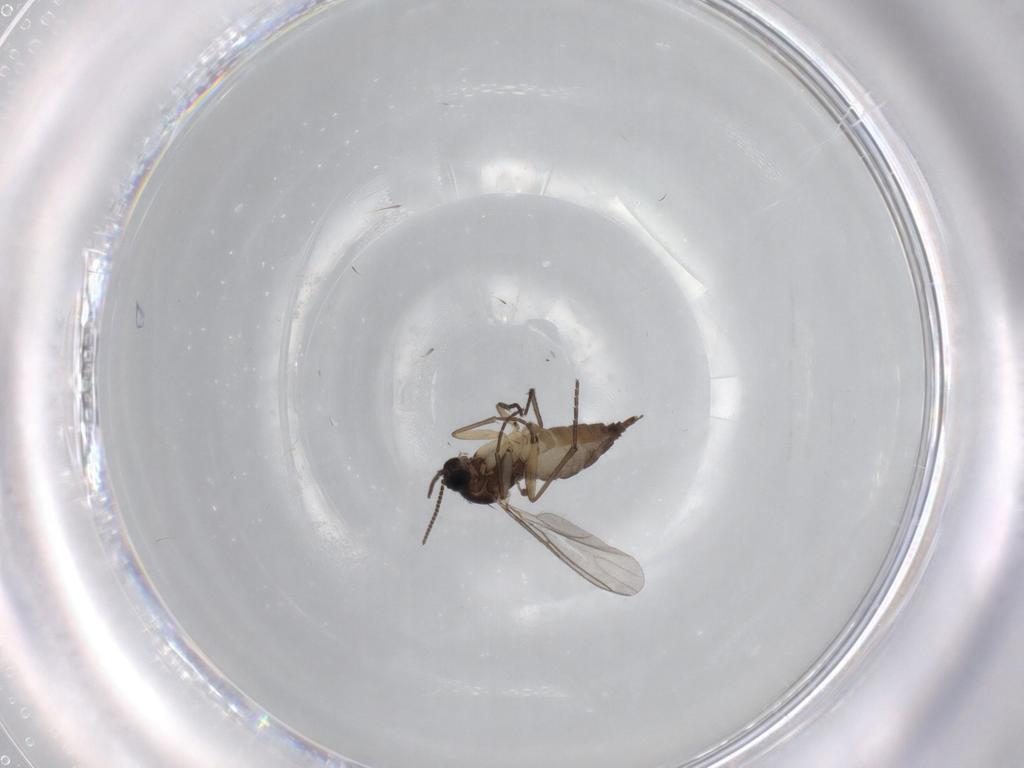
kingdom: Animalia
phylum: Arthropoda
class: Insecta
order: Diptera
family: Sciaridae
